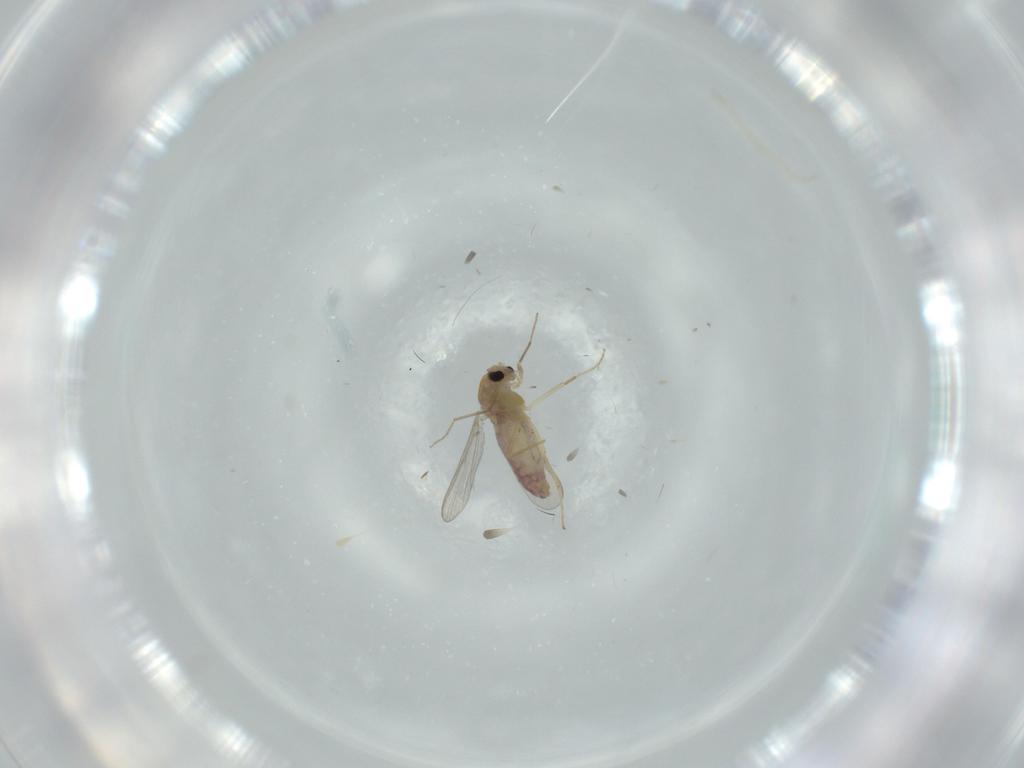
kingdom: Animalia
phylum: Arthropoda
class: Insecta
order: Diptera
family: Chironomidae
